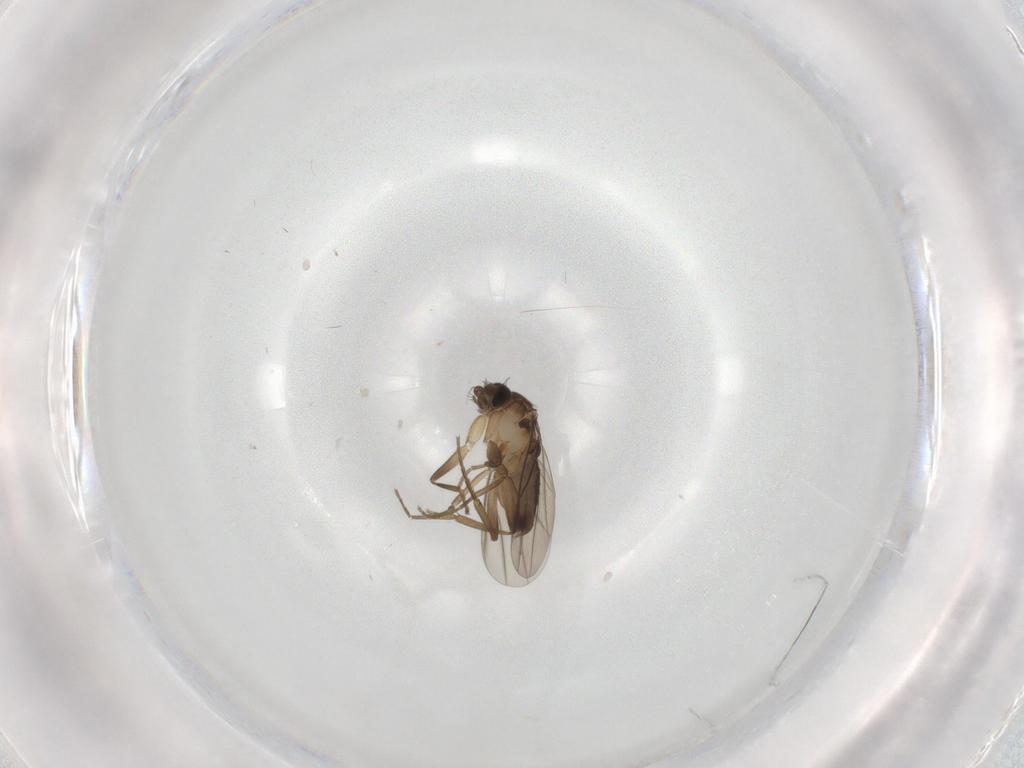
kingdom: Animalia
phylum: Arthropoda
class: Insecta
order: Diptera
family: Phoridae
